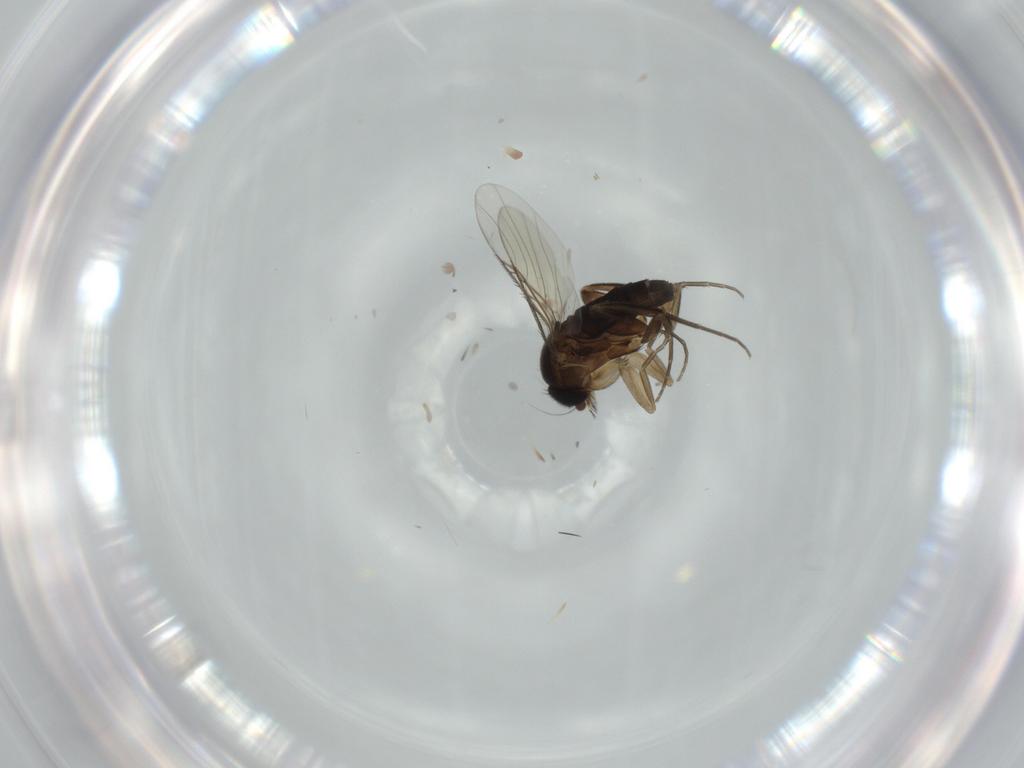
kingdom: Animalia
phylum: Arthropoda
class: Insecta
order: Diptera
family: Phoridae
